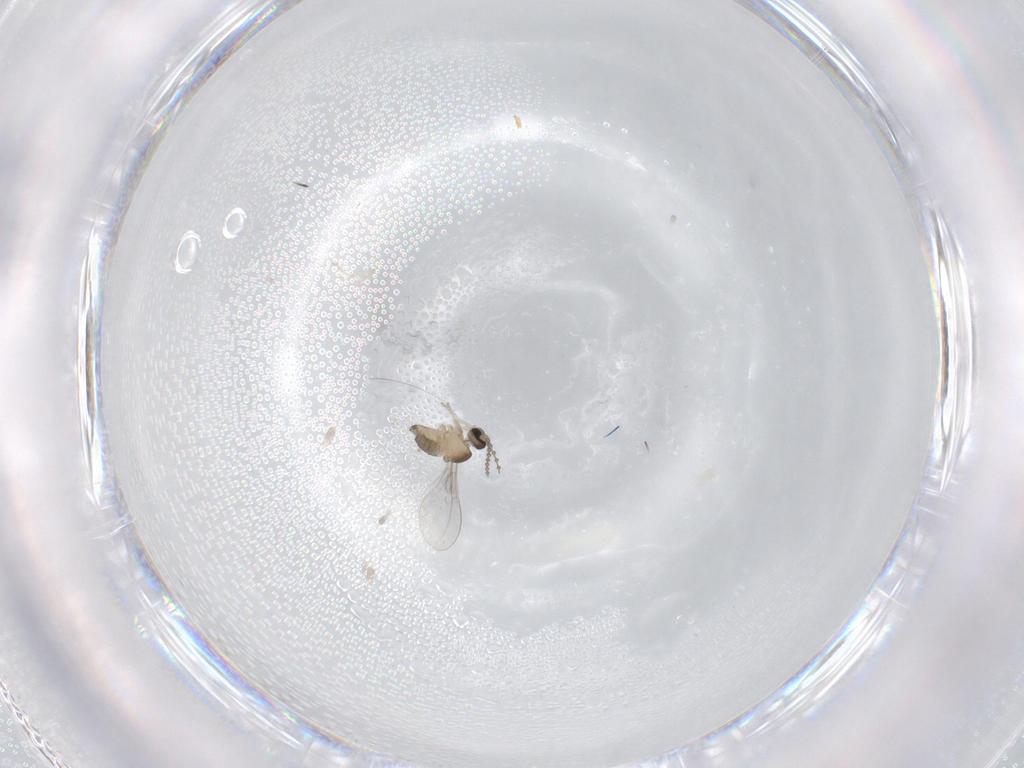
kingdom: Animalia
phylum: Arthropoda
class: Insecta
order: Diptera
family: Cecidomyiidae
